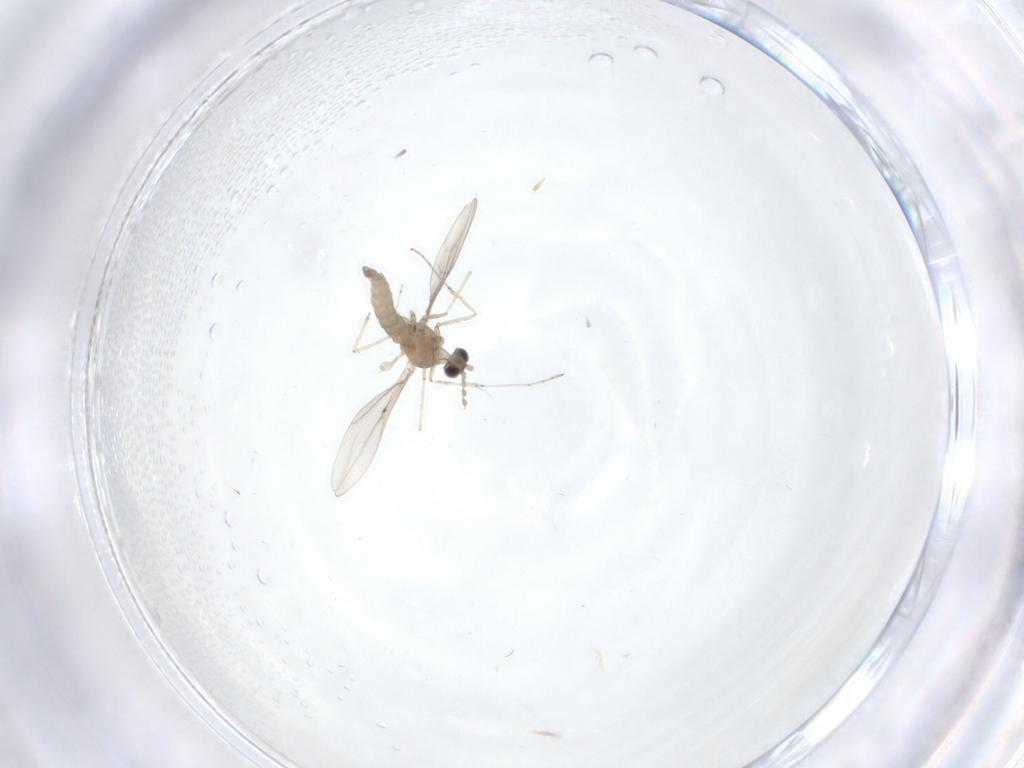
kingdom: Animalia
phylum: Arthropoda
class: Insecta
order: Diptera
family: Cecidomyiidae
